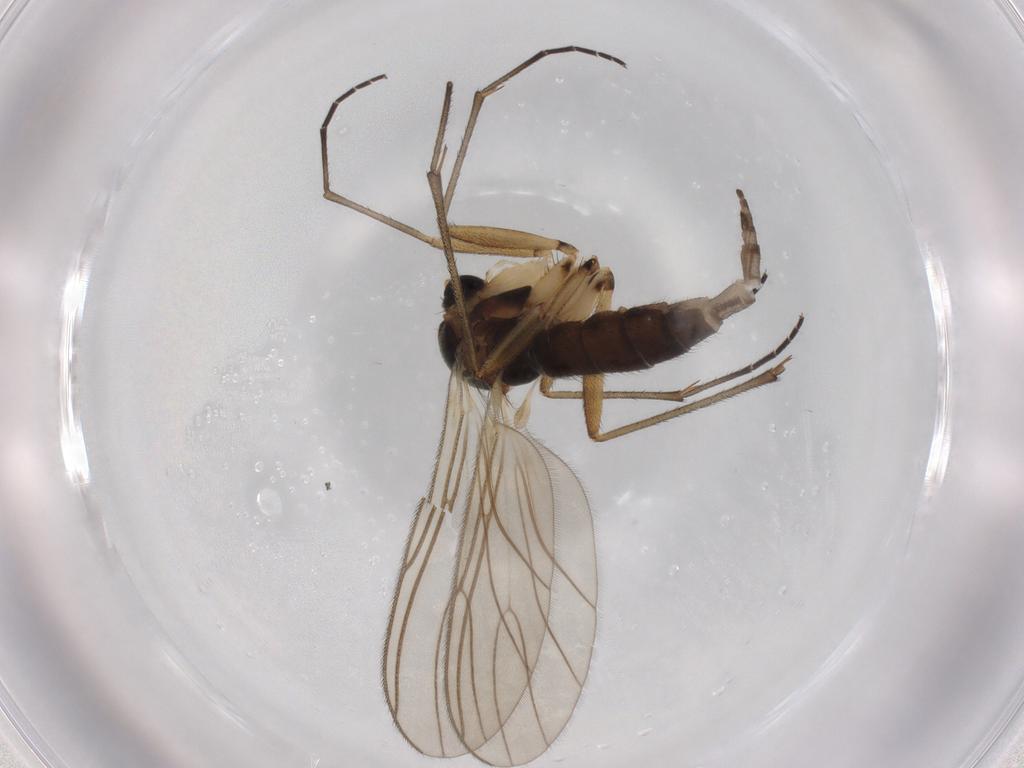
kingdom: Animalia
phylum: Arthropoda
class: Insecta
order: Diptera
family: Sciaridae
